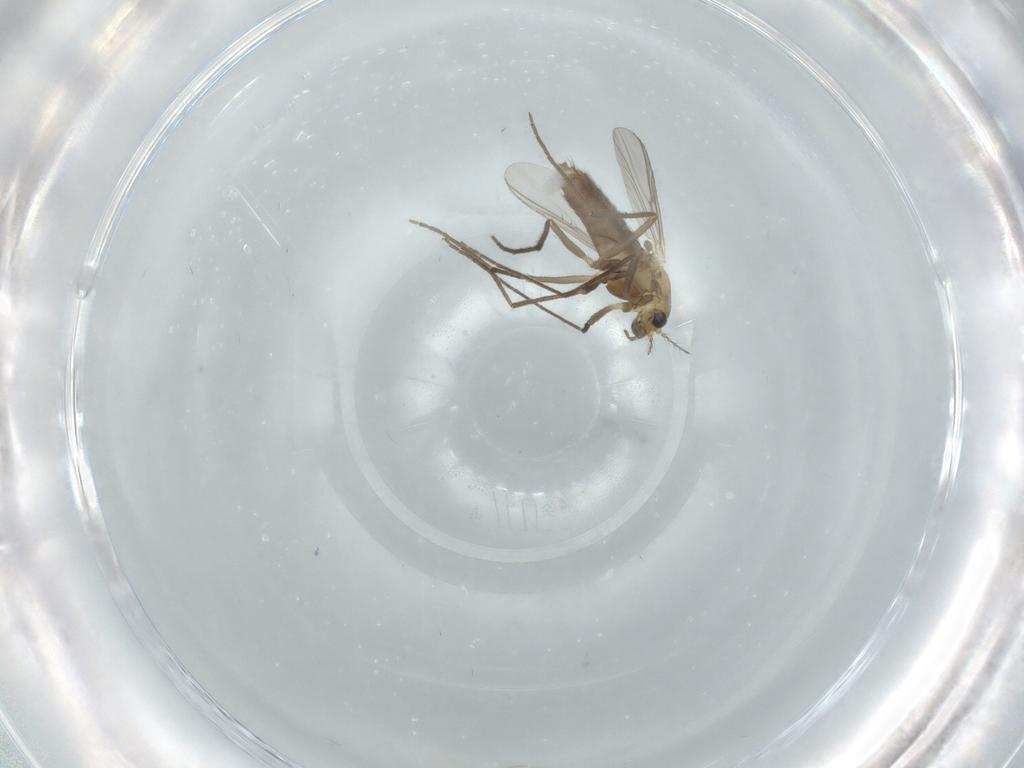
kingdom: Animalia
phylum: Arthropoda
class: Insecta
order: Diptera
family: Chironomidae
